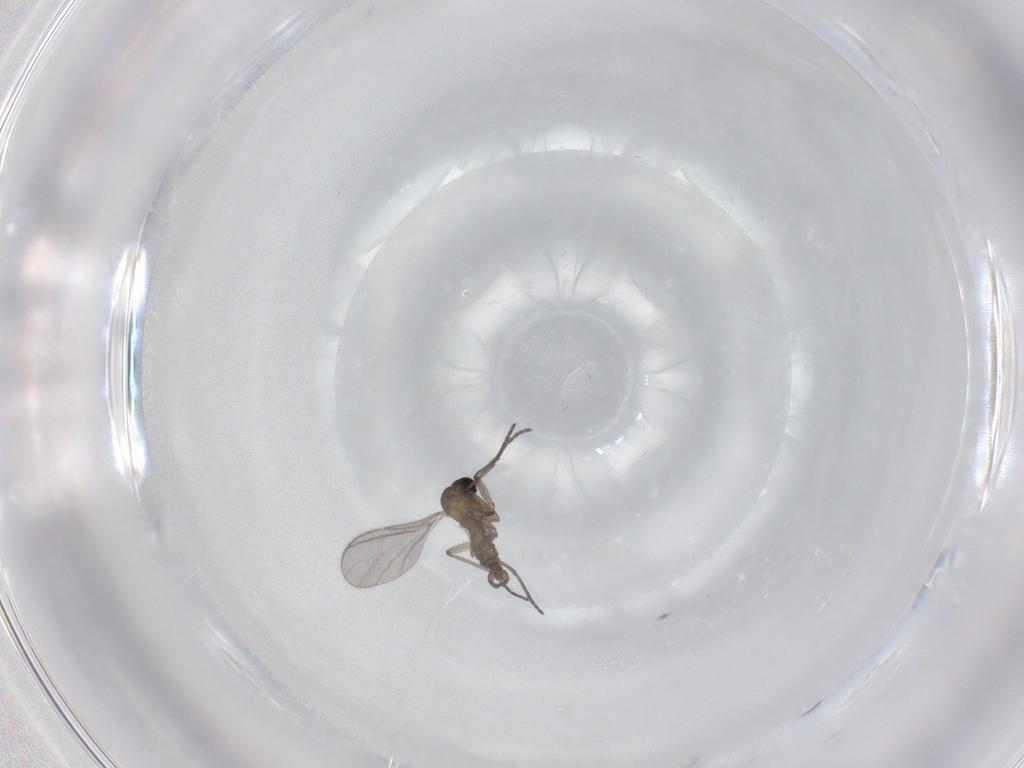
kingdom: Animalia
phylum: Arthropoda
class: Insecta
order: Diptera
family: Sciaridae
